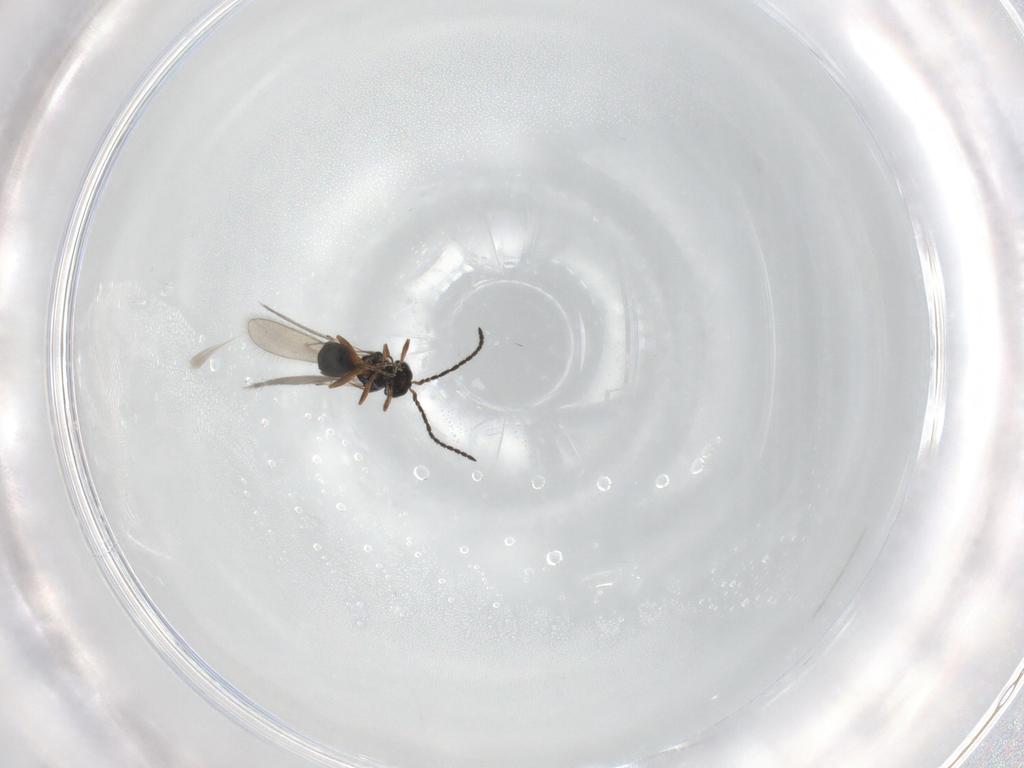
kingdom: Animalia
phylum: Arthropoda
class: Insecta
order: Hymenoptera
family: Scelionidae
